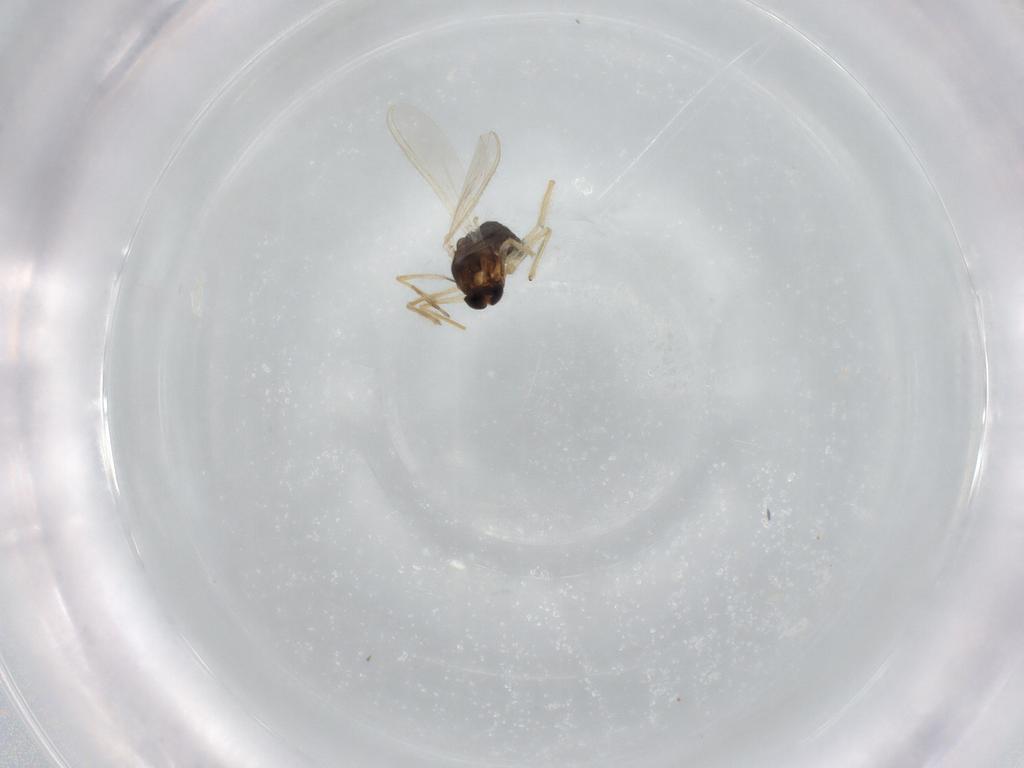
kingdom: Animalia
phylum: Arthropoda
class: Insecta
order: Diptera
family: Chironomidae
